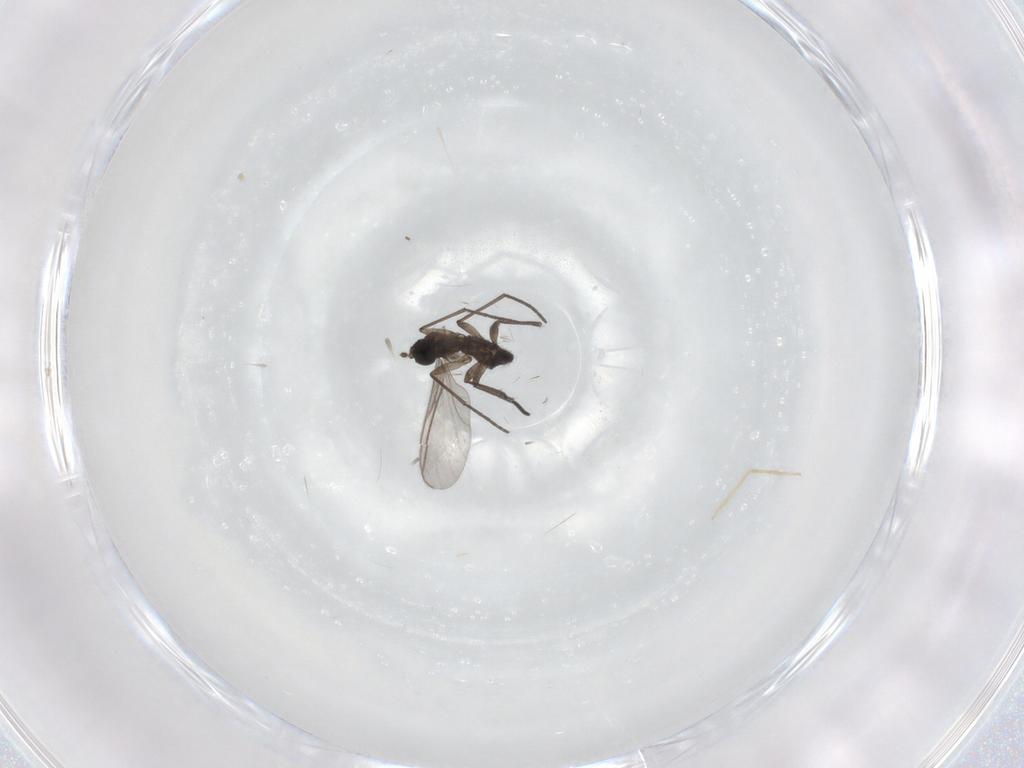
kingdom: Animalia
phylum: Arthropoda
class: Insecta
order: Diptera
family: Chironomidae
